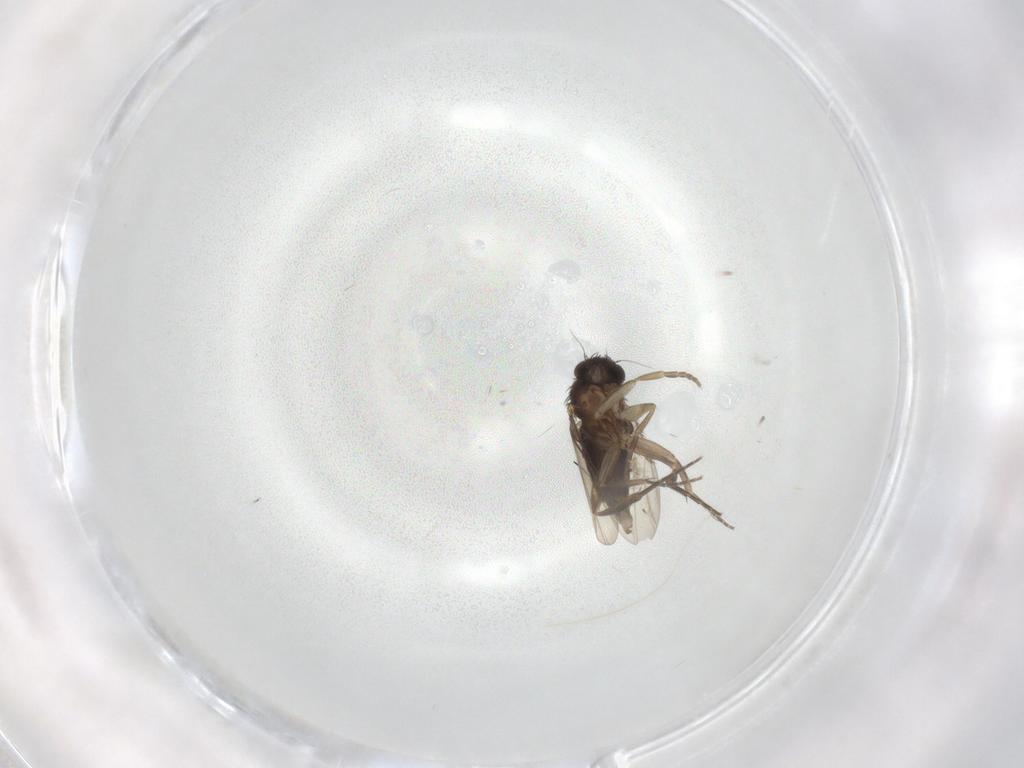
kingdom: Animalia
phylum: Arthropoda
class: Insecta
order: Diptera
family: Phoridae
